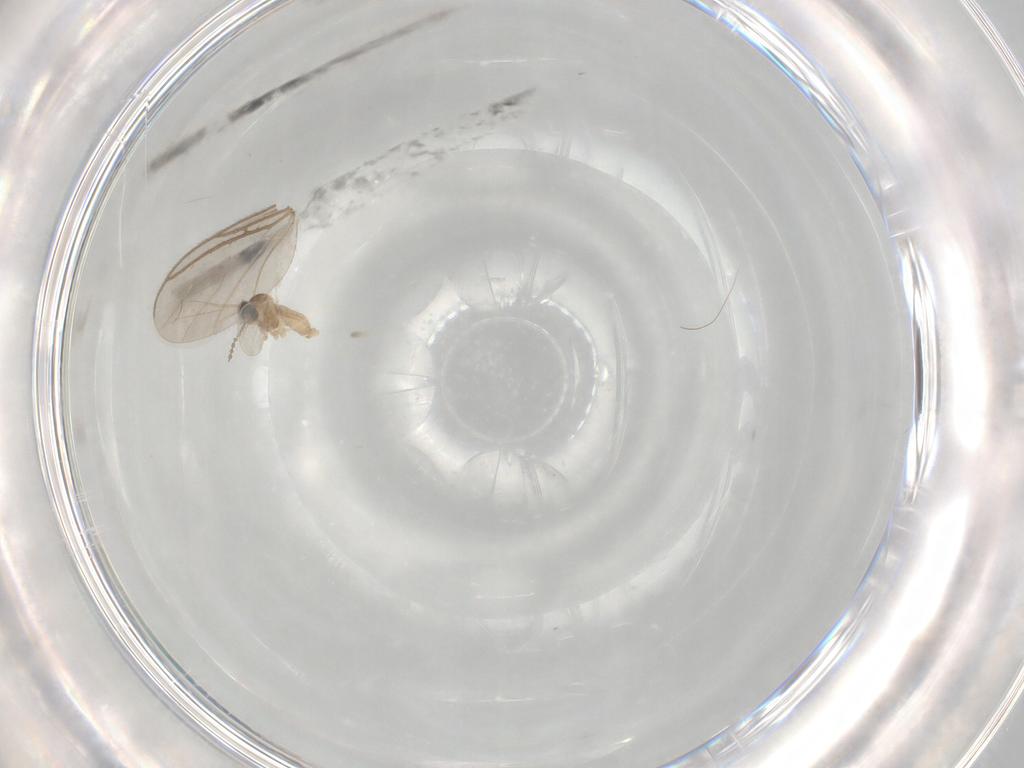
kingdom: Animalia
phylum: Arthropoda
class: Insecta
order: Diptera
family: Cecidomyiidae
